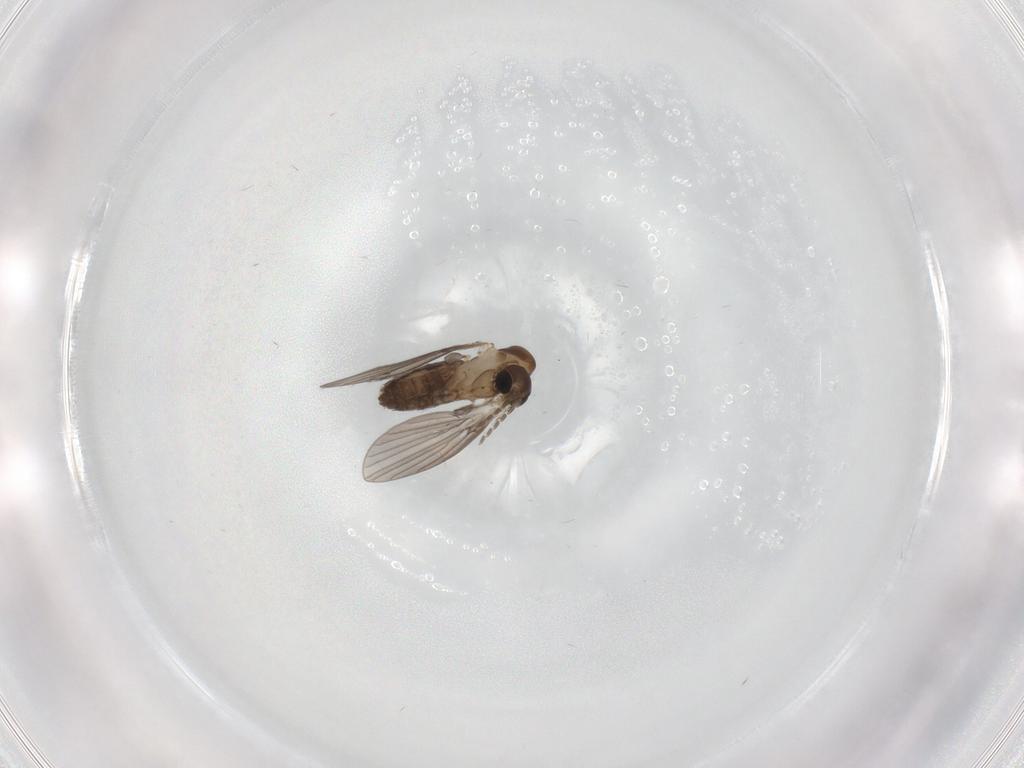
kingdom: Animalia
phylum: Arthropoda
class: Insecta
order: Diptera
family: Psychodidae
